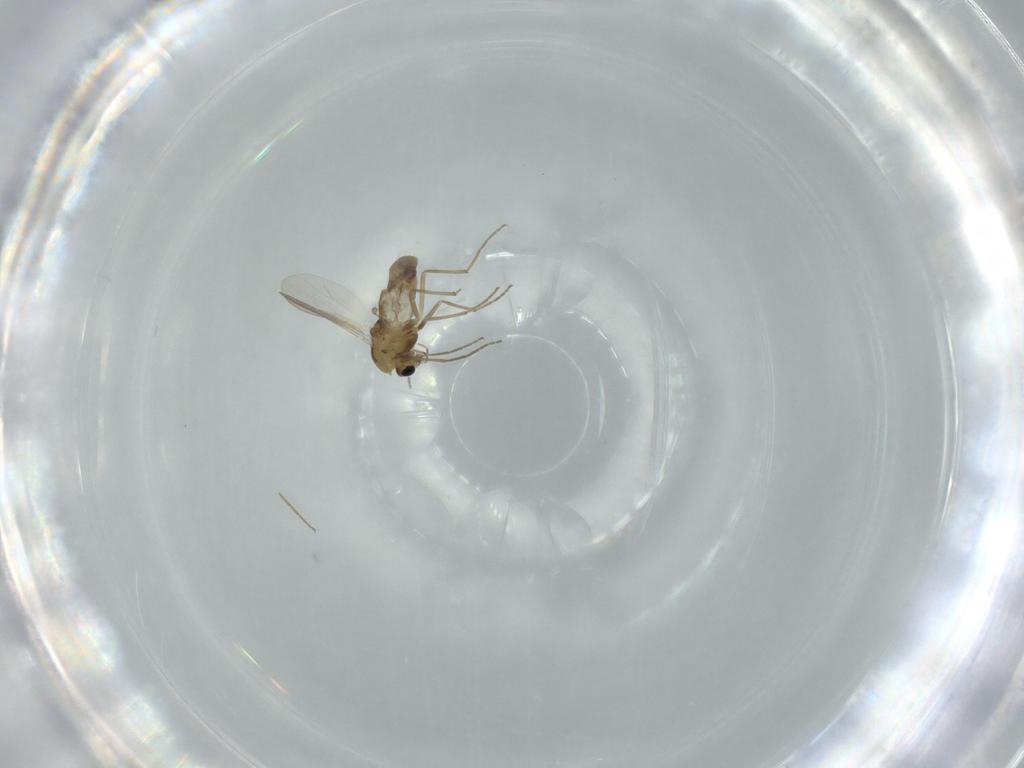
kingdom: Animalia
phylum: Arthropoda
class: Insecta
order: Diptera
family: Chironomidae
